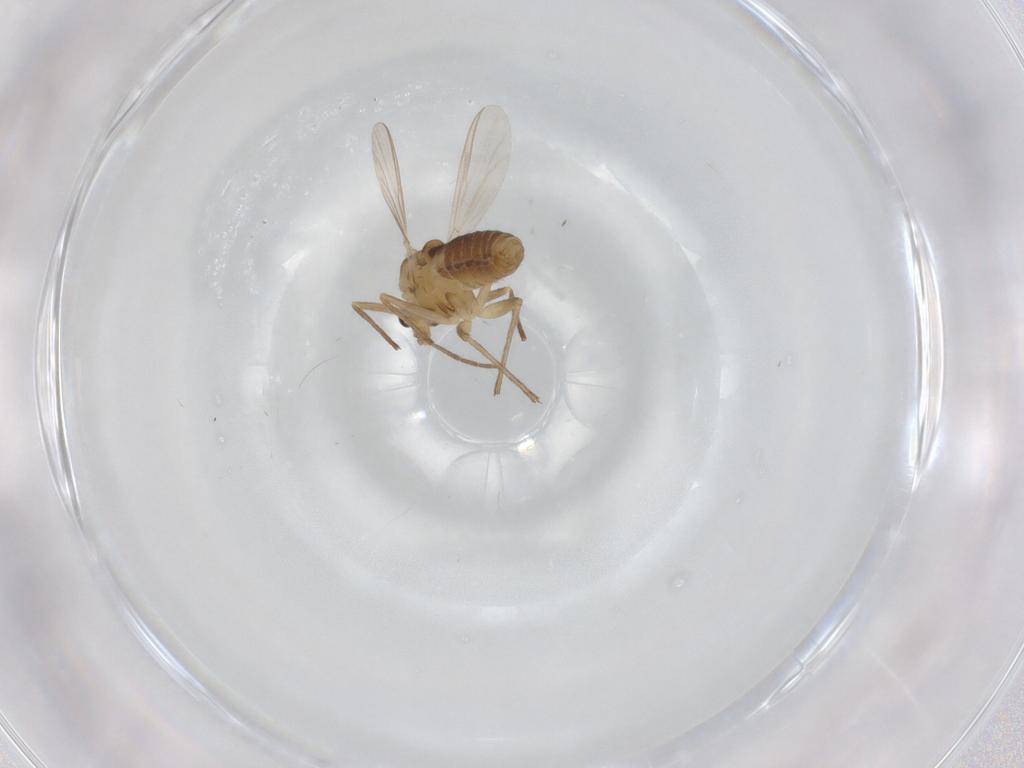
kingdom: Animalia
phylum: Arthropoda
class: Insecta
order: Diptera
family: Chironomidae
